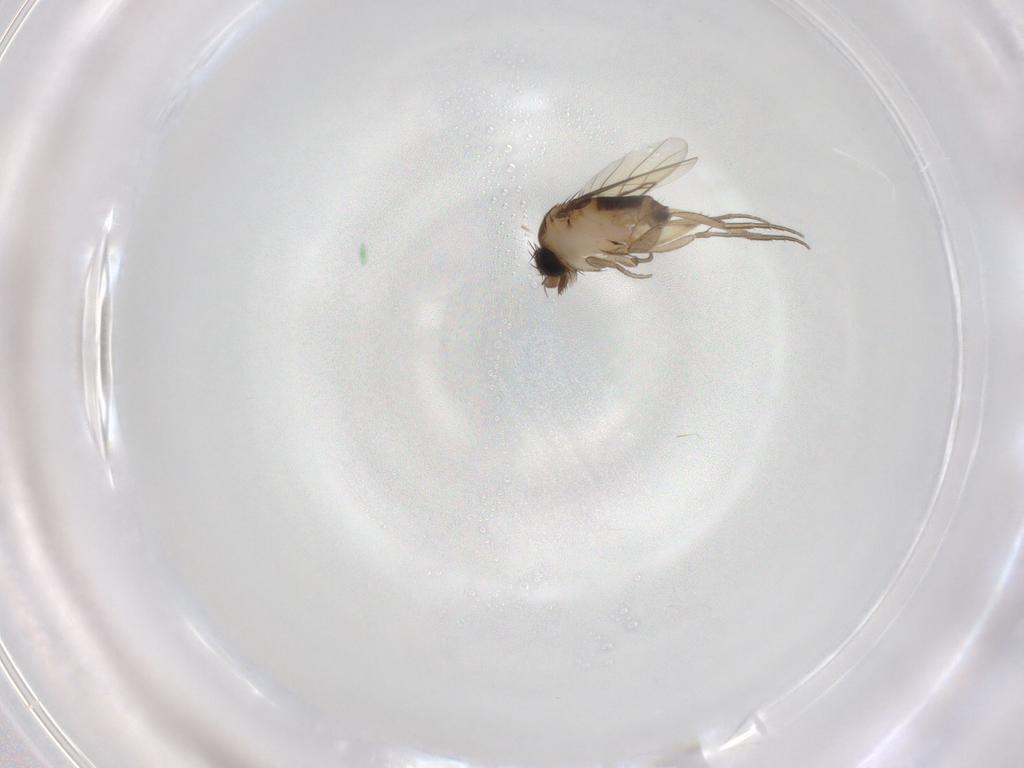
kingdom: Animalia
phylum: Arthropoda
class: Insecta
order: Diptera
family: Phoridae
